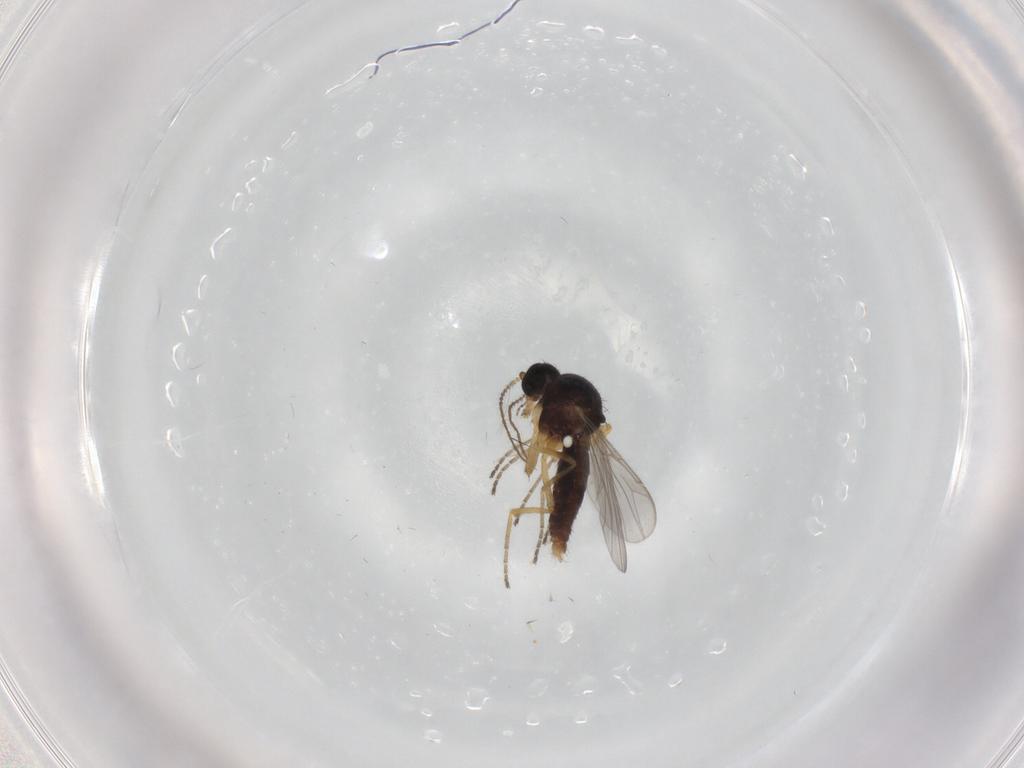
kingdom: Animalia
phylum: Arthropoda
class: Insecta
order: Diptera
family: Ceratopogonidae
